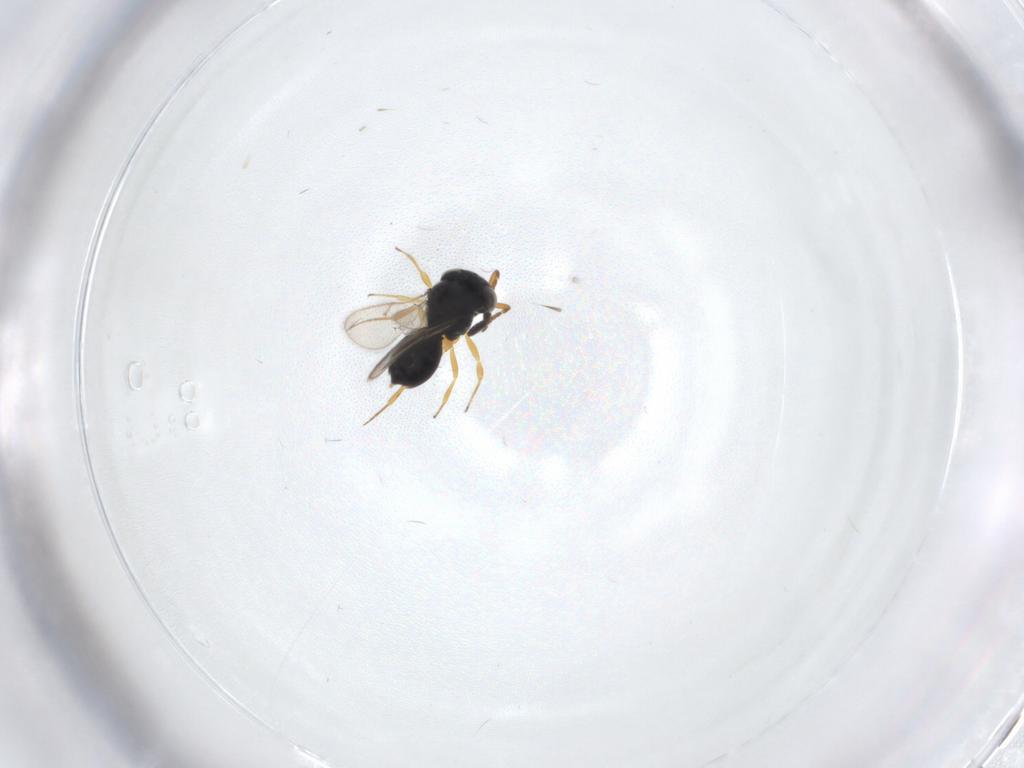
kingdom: Animalia
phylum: Arthropoda
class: Insecta
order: Hymenoptera
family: Scelionidae
